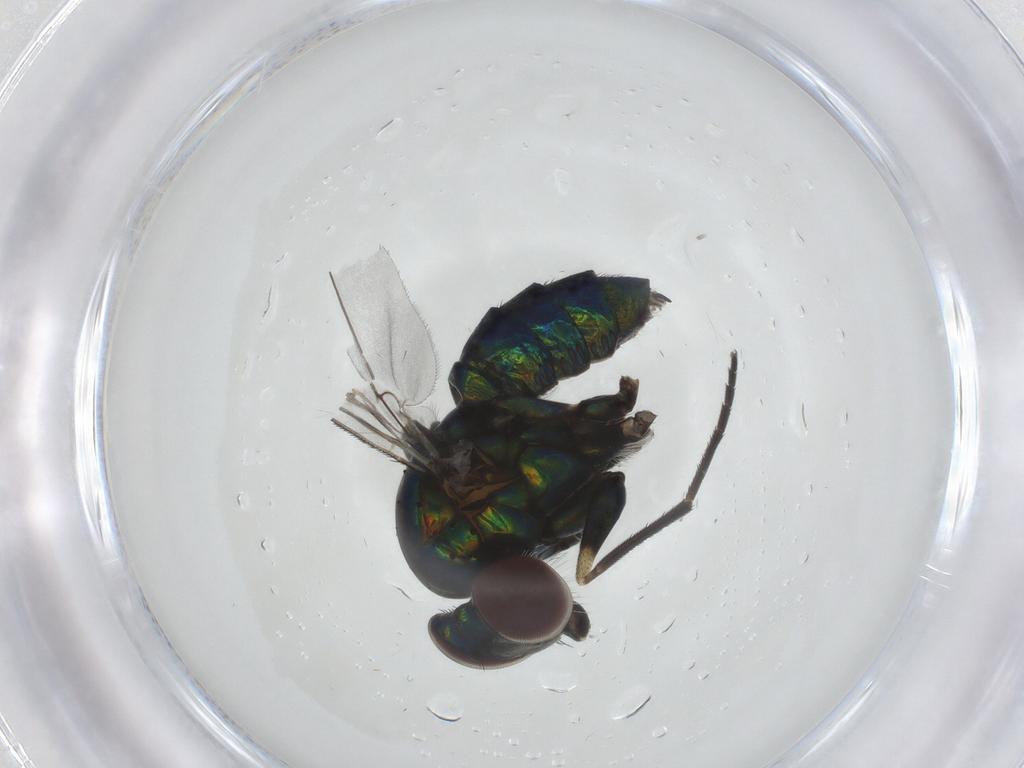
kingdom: Animalia
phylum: Arthropoda
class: Insecta
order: Diptera
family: Dolichopodidae
